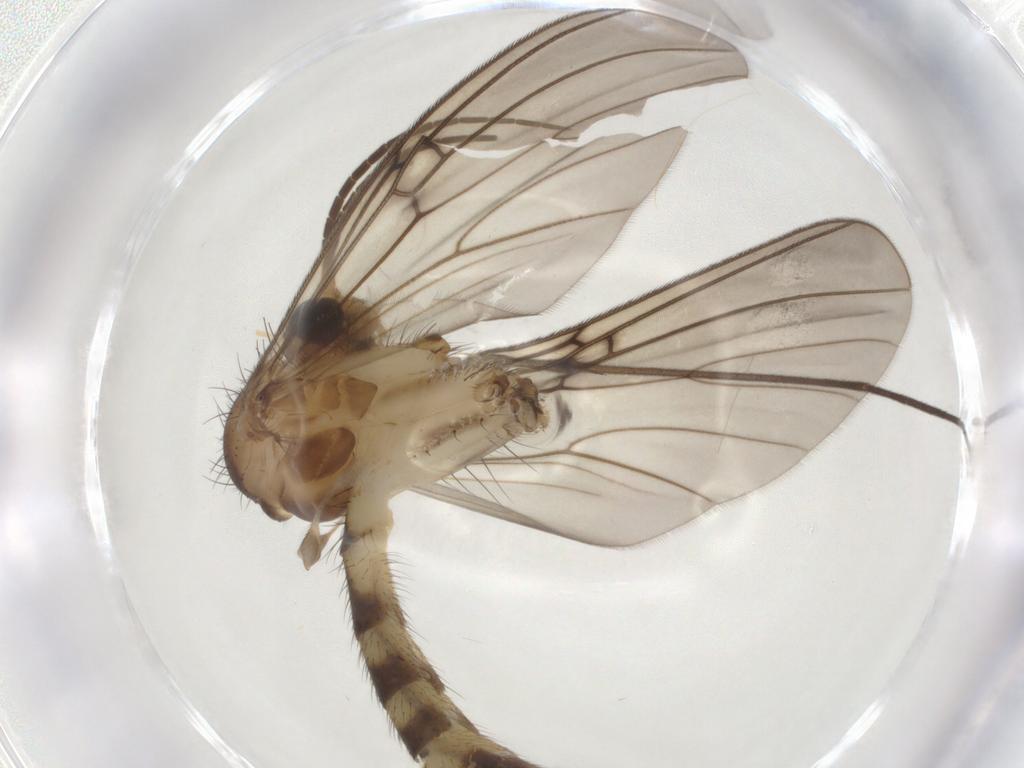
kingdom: Animalia
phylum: Arthropoda
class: Insecta
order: Diptera
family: Mycetophilidae
